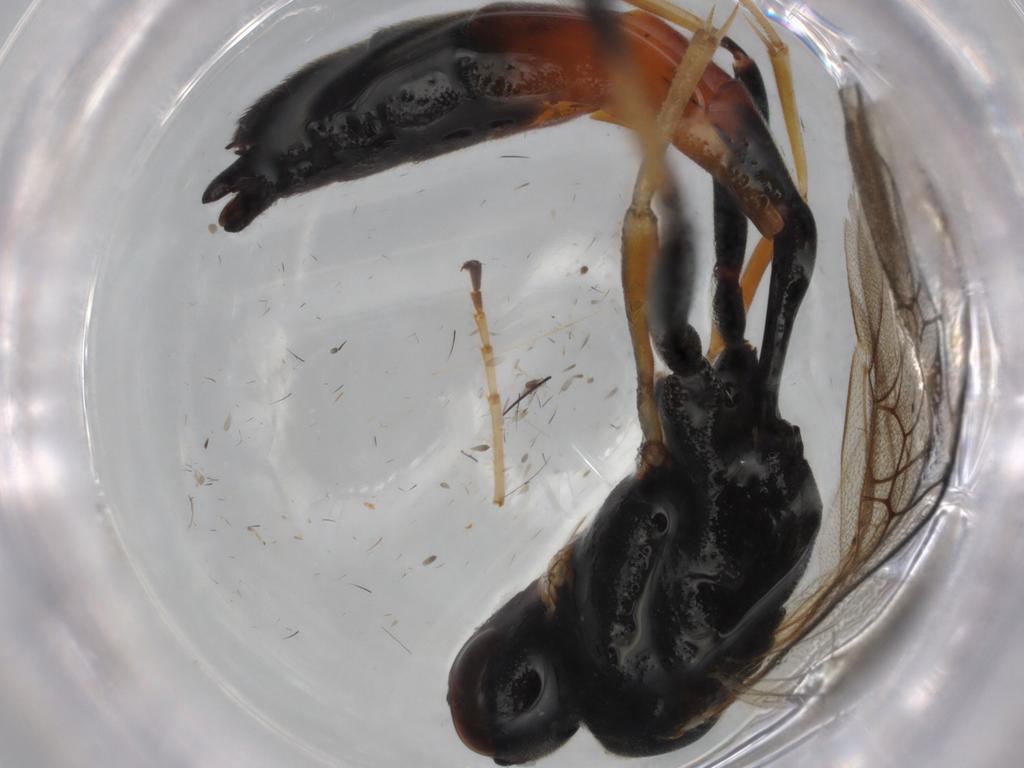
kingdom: Animalia
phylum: Arthropoda
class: Insecta
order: Hymenoptera
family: Ichneumonidae
